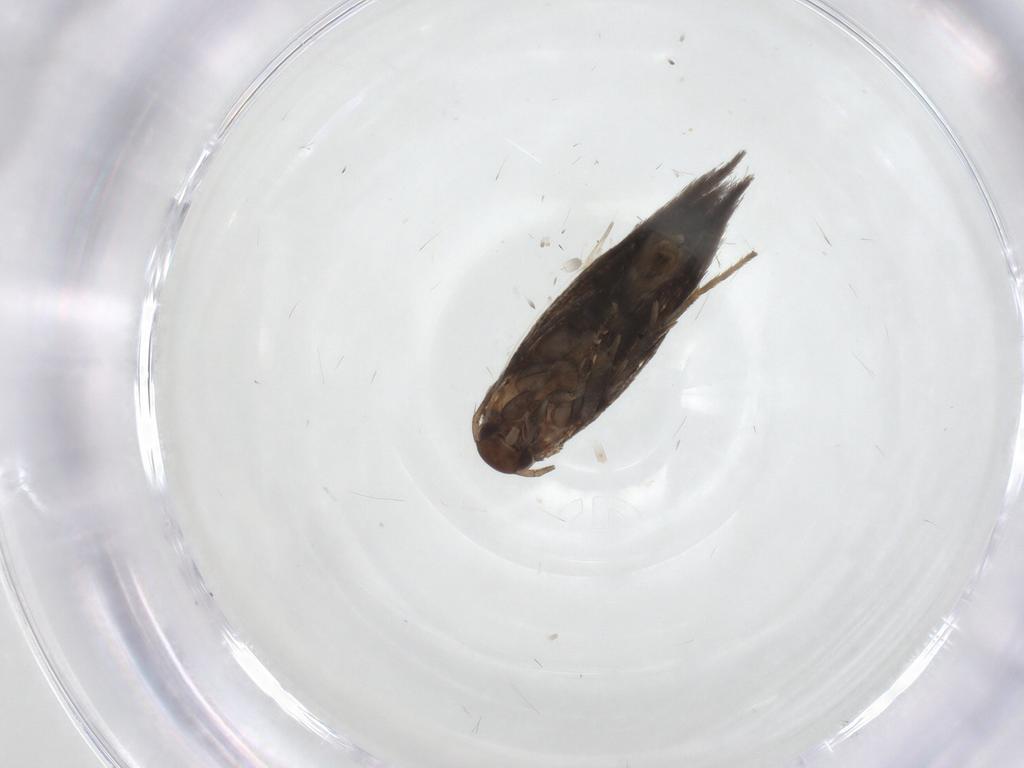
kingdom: Animalia
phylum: Arthropoda
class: Insecta
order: Lepidoptera
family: Elachistidae
